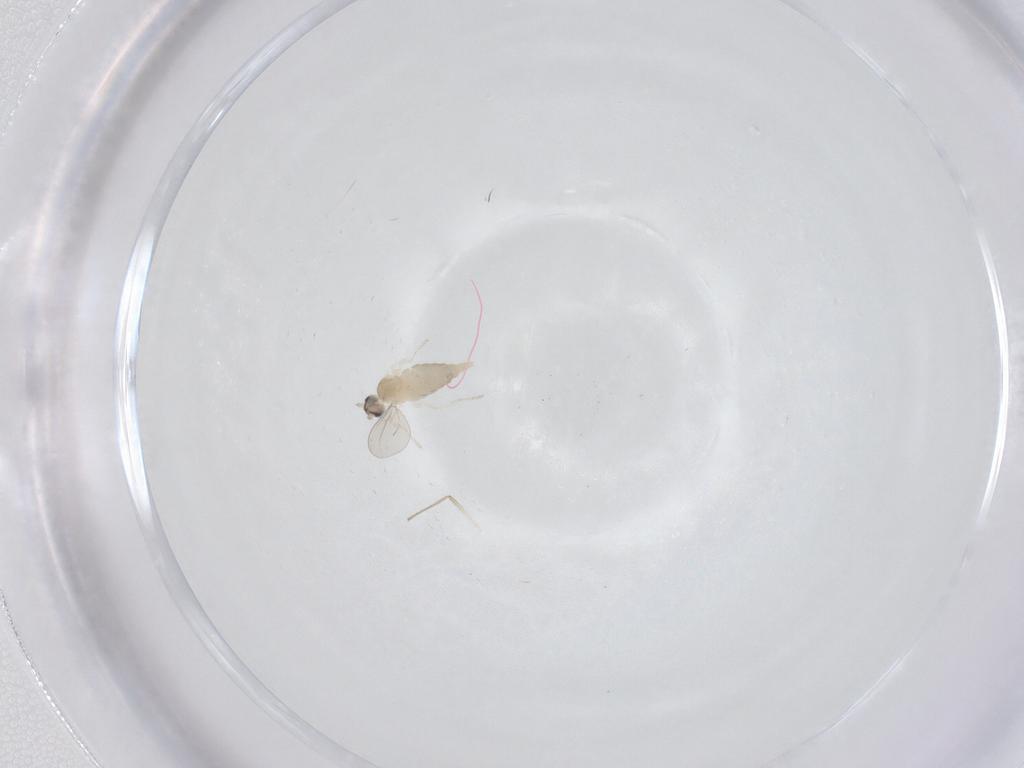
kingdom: Animalia
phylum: Arthropoda
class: Insecta
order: Diptera
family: Cecidomyiidae
